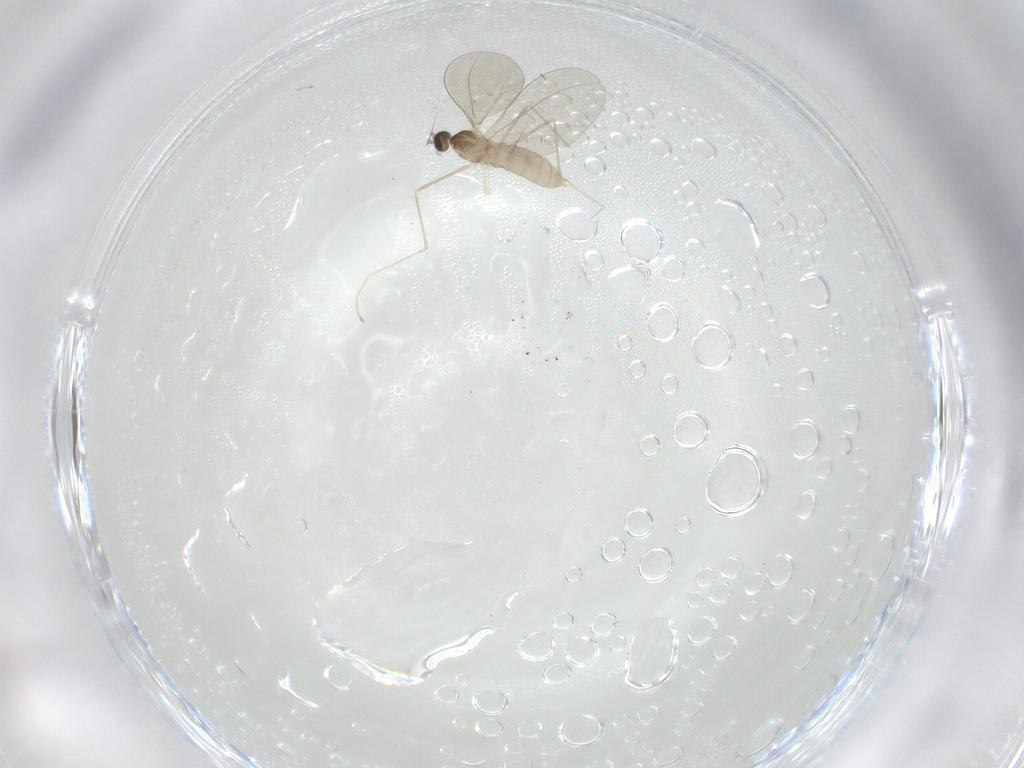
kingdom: Animalia
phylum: Arthropoda
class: Insecta
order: Diptera
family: Cecidomyiidae
